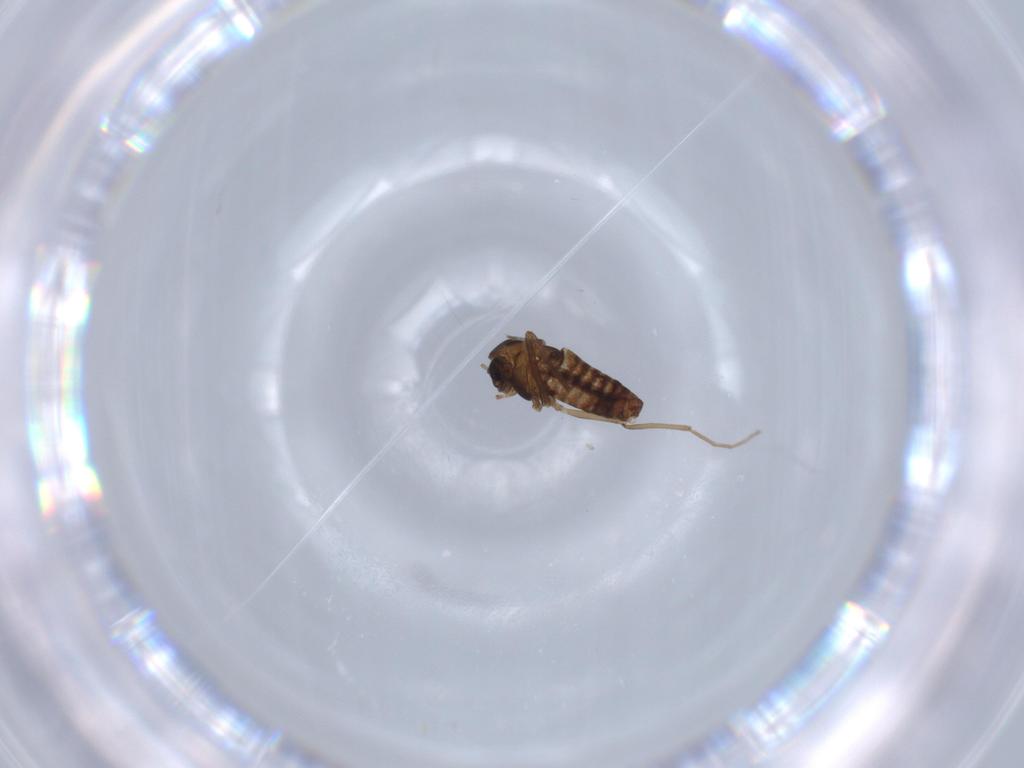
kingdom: Animalia
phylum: Arthropoda
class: Insecta
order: Diptera
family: Chironomidae
